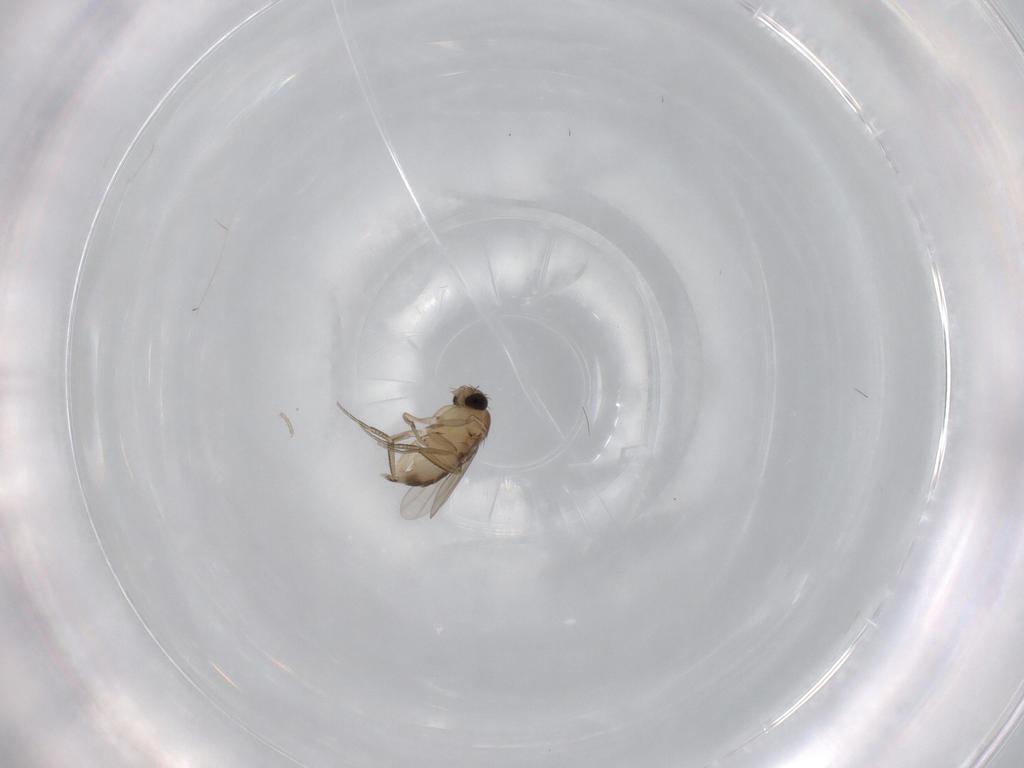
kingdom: Animalia
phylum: Arthropoda
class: Insecta
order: Diptera
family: Phoridae
